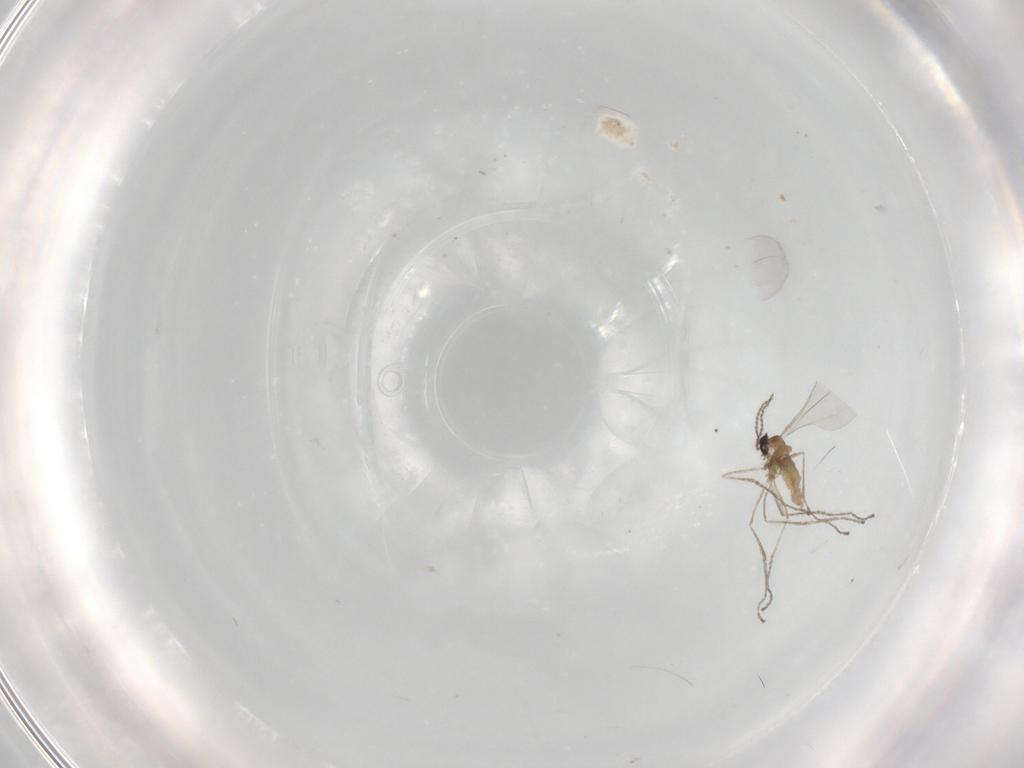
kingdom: Animalia
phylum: Arthropoda
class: Insecta
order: Diptera
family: Cecidomyiidae
